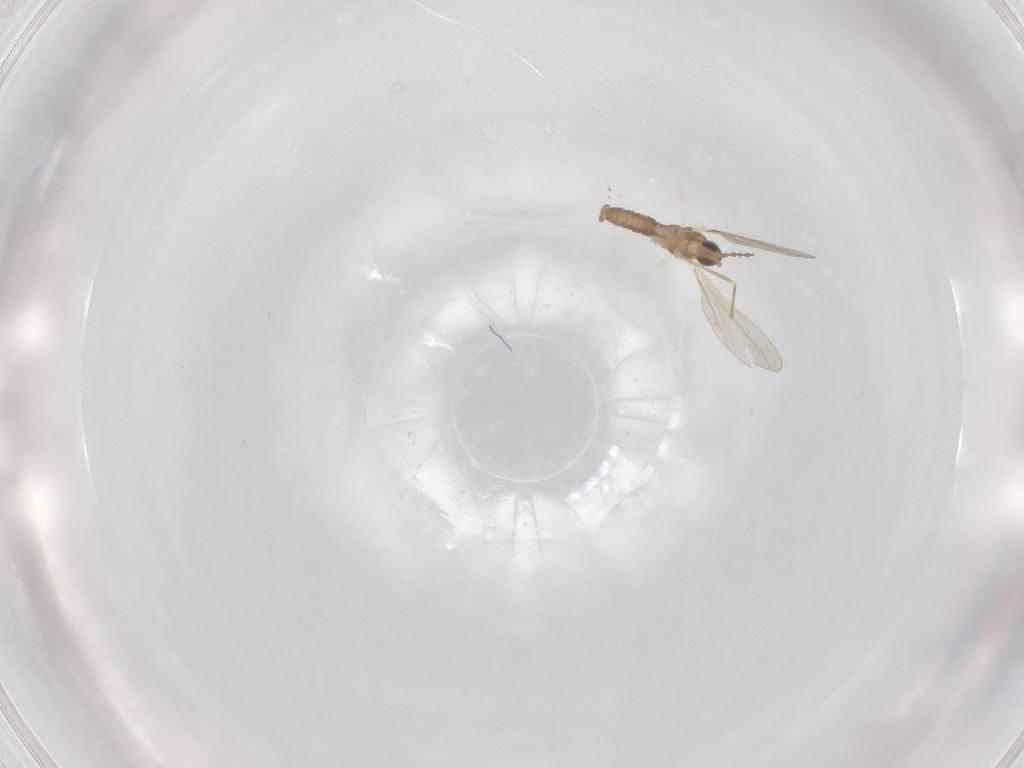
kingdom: Animalia
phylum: Arthropoda
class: Insecta
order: Diptera
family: Cecidomyiidae
